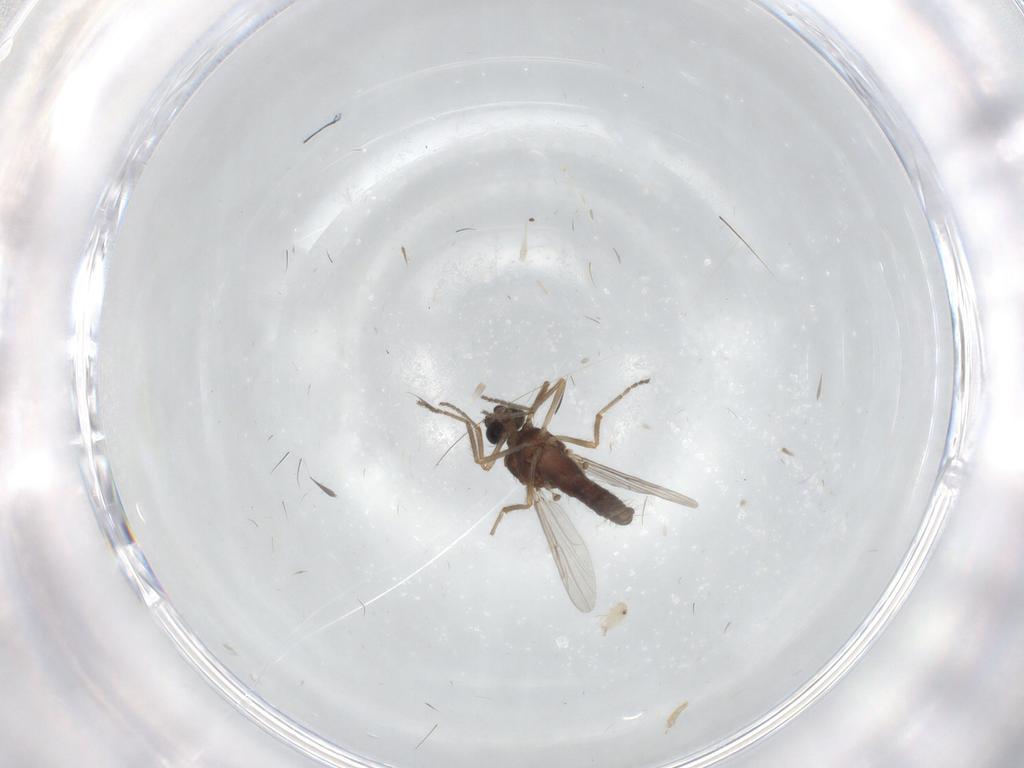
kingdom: Animalia
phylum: Arthropoda
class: Insecta
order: Diptera
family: Ceratopogonidae
